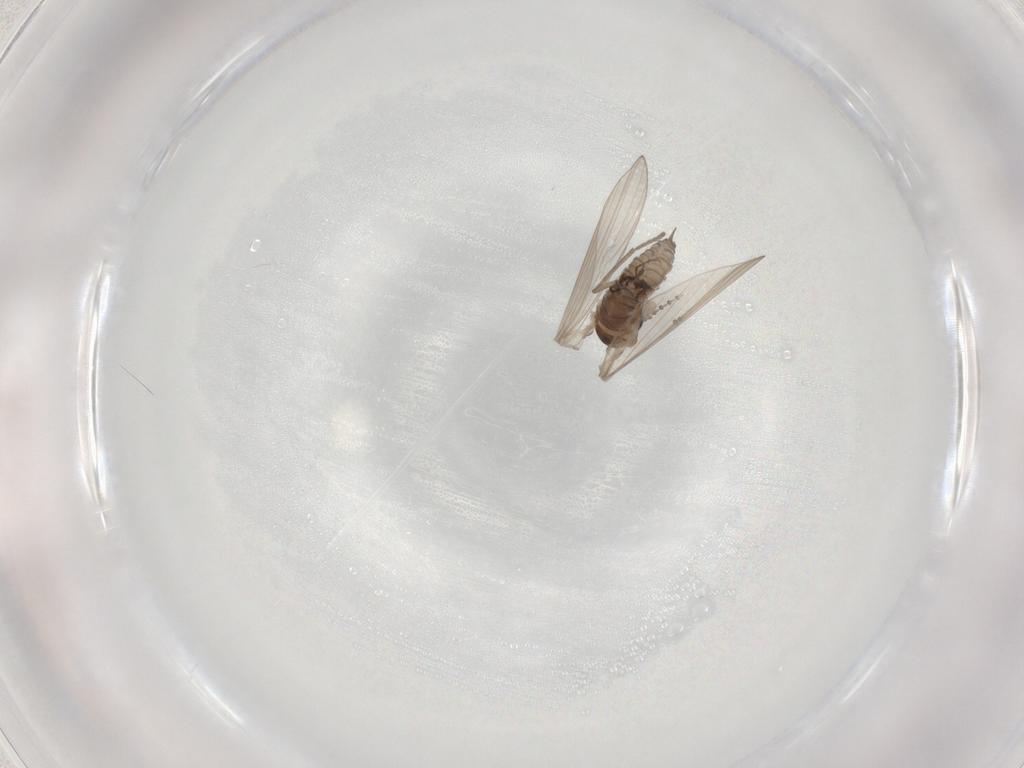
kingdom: Animalia
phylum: Arthropoda
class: Insecta
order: Diptera
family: Psychodidae
